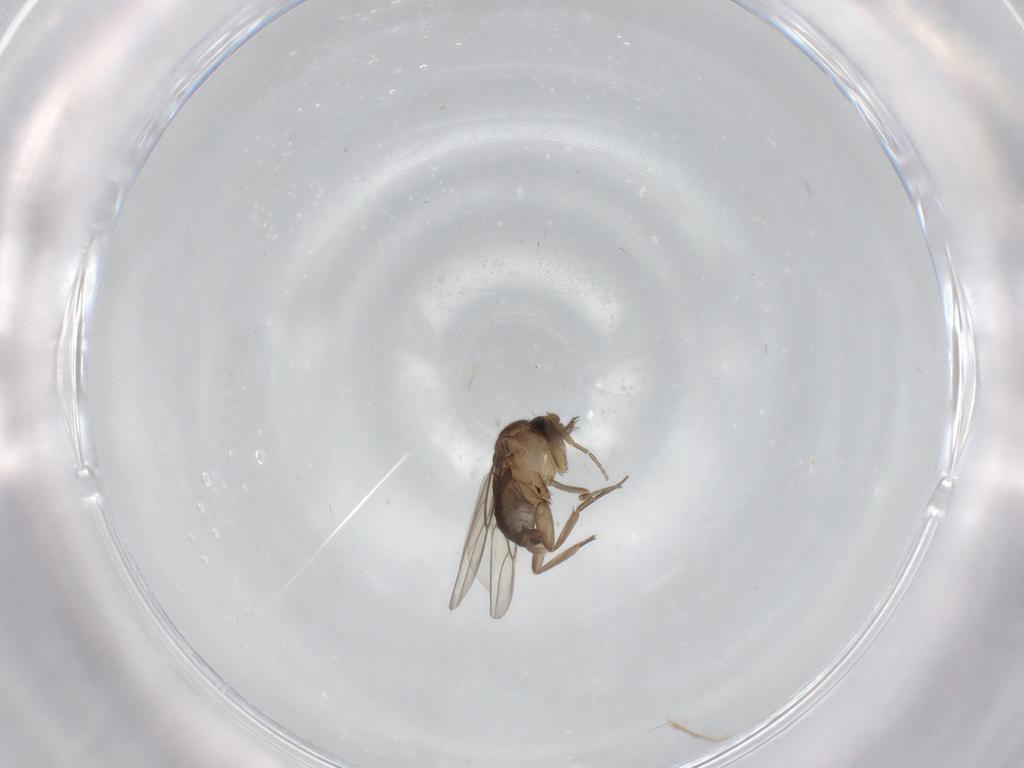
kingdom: Animalia
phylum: Arthropoda
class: Insecta
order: Diptera
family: Phoridae
